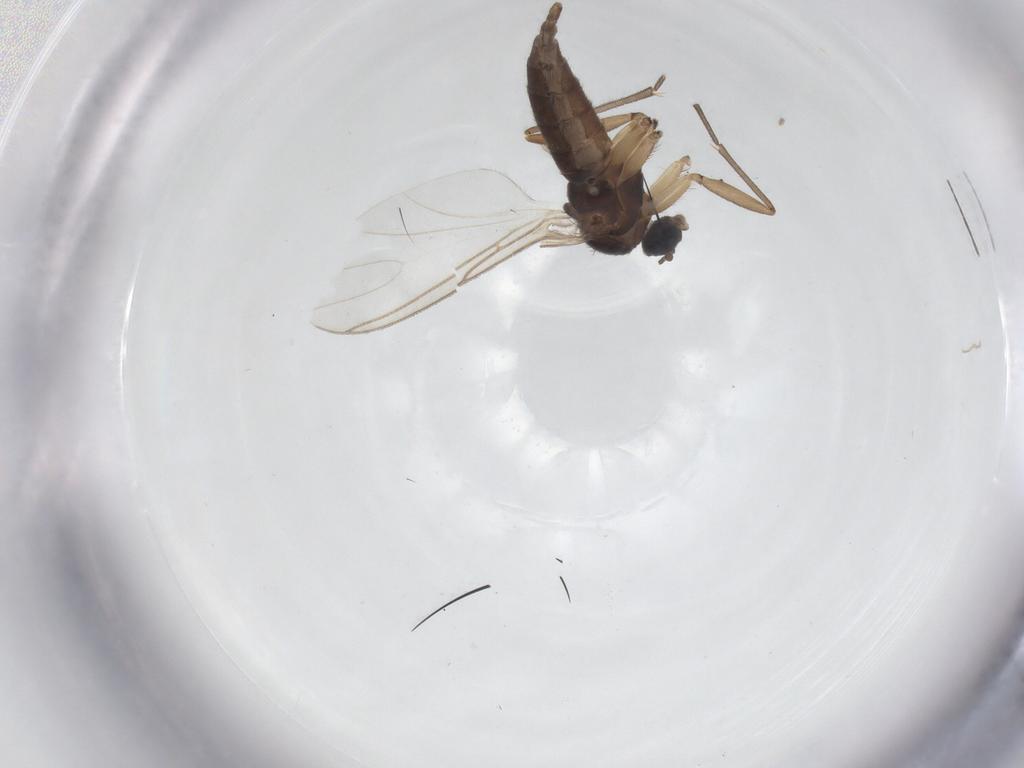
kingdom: Animalia
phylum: Arthropoda
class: Insecta
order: Diptera
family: Sciaridae
